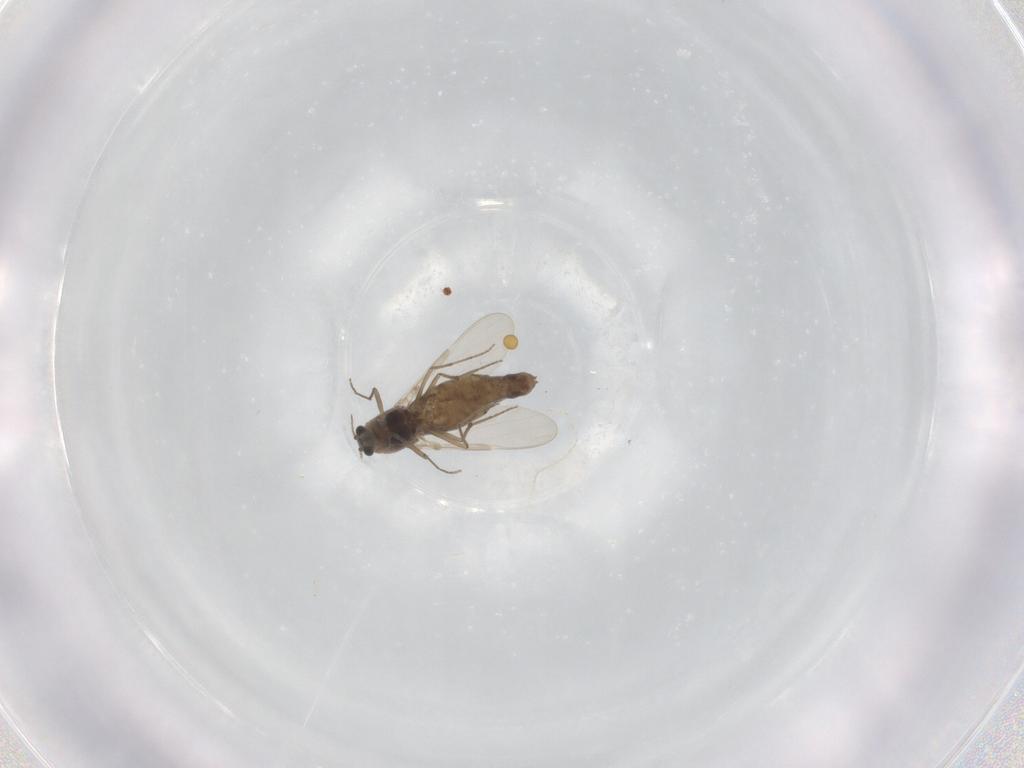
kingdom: Animalia
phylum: Arthropoda
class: Insecta
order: Diptera
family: Chironomidae
